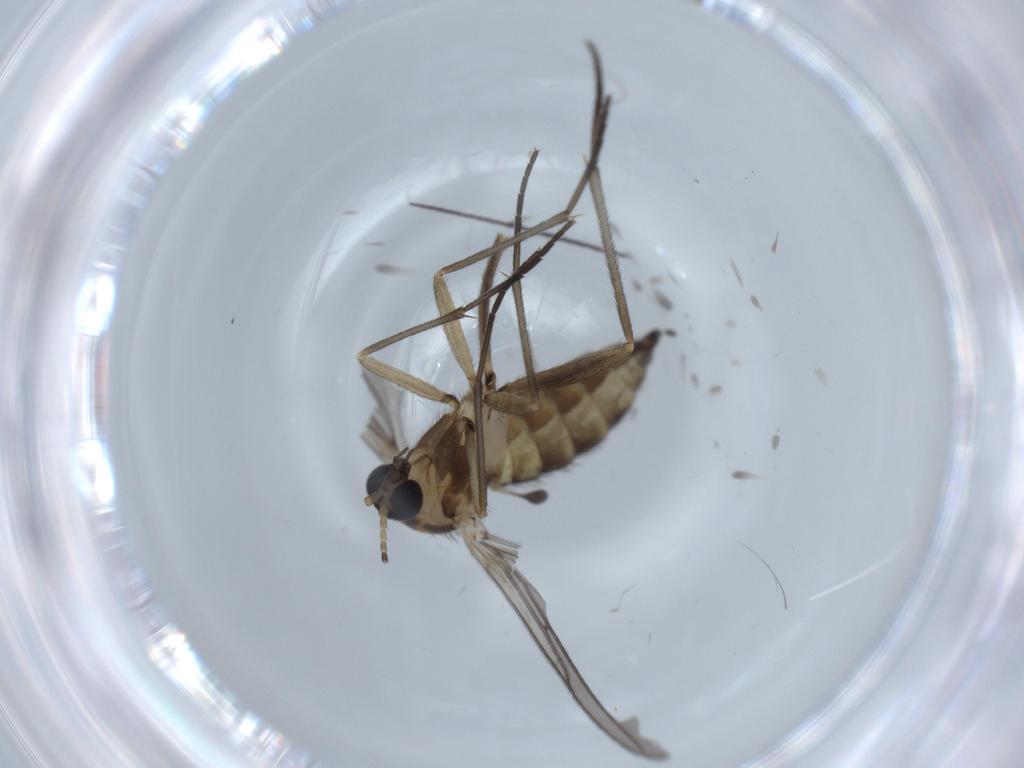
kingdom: Animalia
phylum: Arthropoda
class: Insecta
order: Diptera
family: Sciaridae
